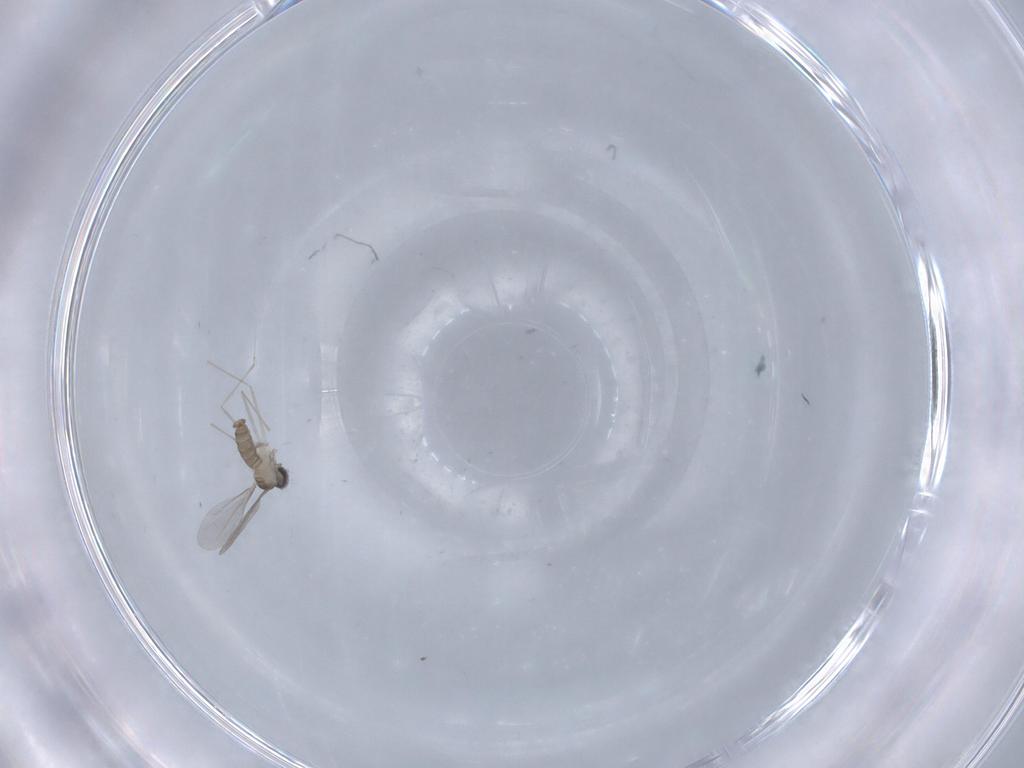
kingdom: Animalia
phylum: Arthropoda
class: Insecta
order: Diptera
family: Cecidomyiidae
